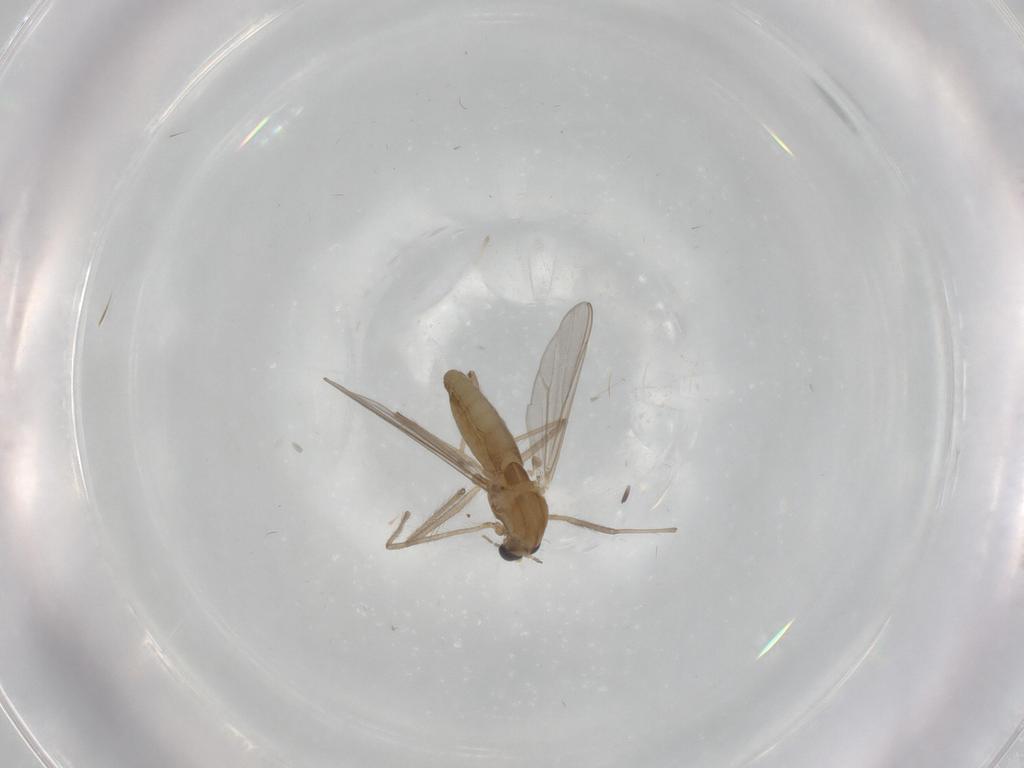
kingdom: Animalia
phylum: Arthropoda
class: Insecta
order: Diptera
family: Chironomidae
